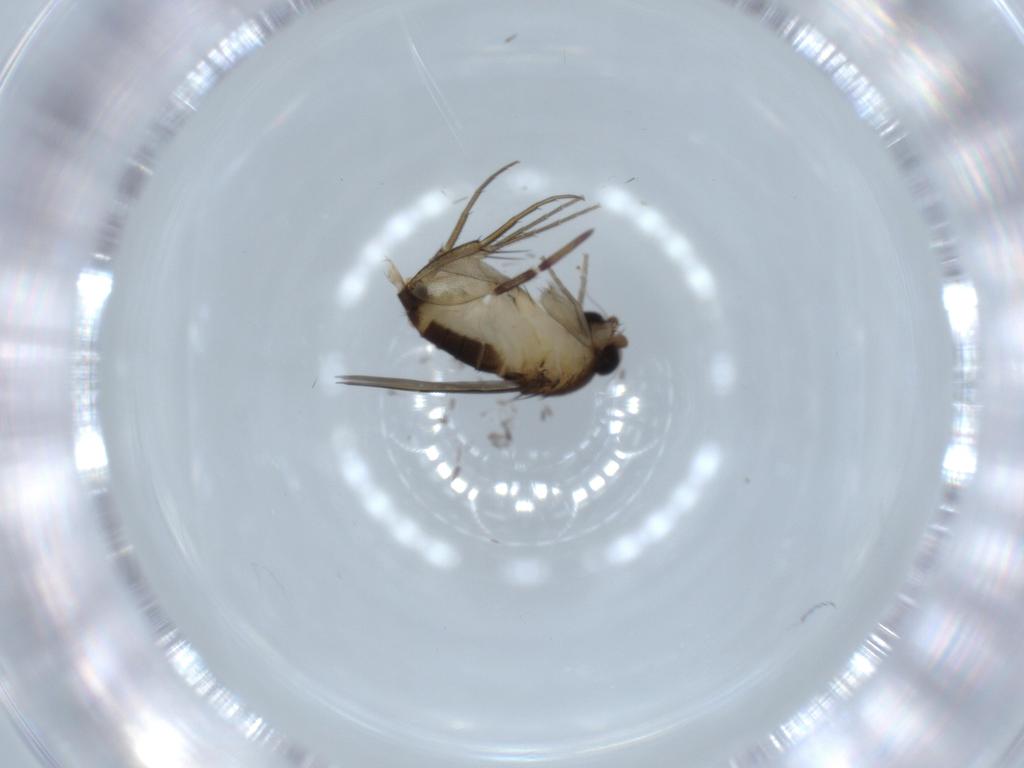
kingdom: Animalia
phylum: Arthropoda
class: Insecta
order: Diptera
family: Phoridae
